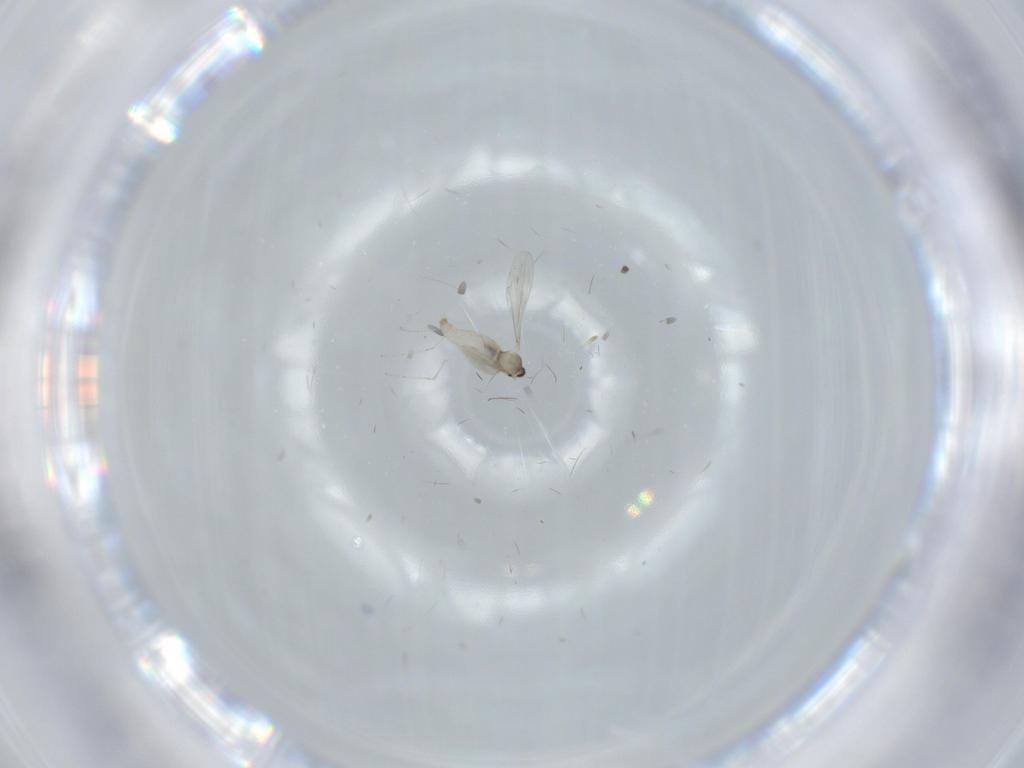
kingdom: Animalia
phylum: Arthropoda
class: Insecta
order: Diptera
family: Cecidomyiidae
